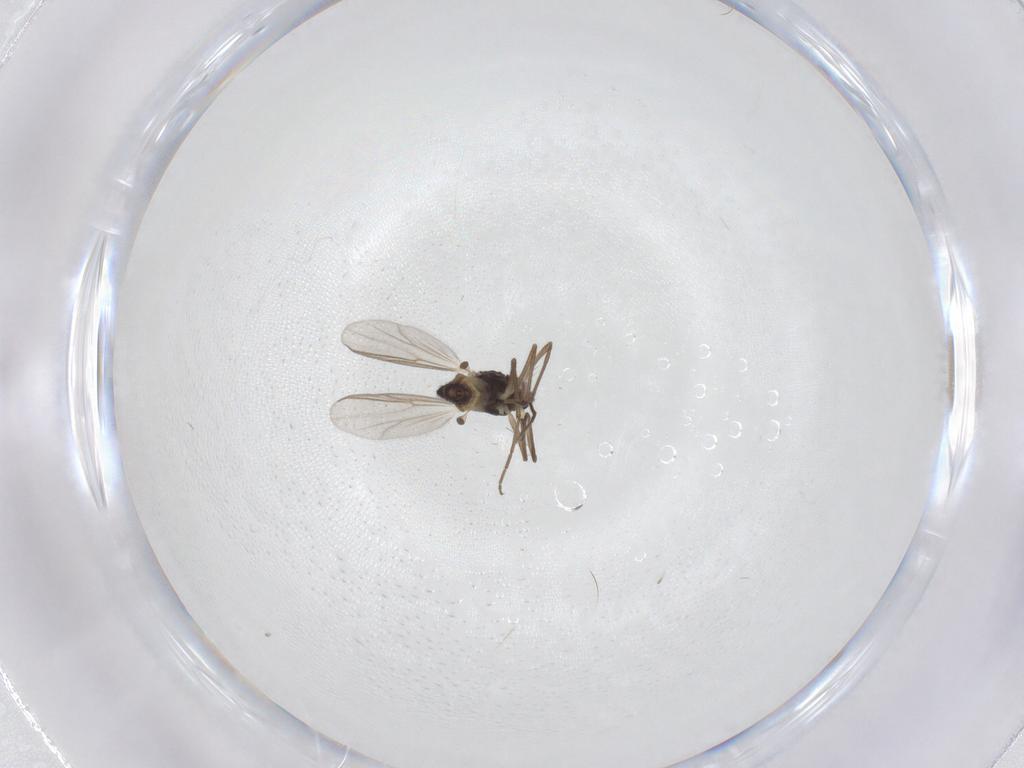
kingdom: Animalia
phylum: Arthropoda
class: Insecta
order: Diptera
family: Chironomidae
